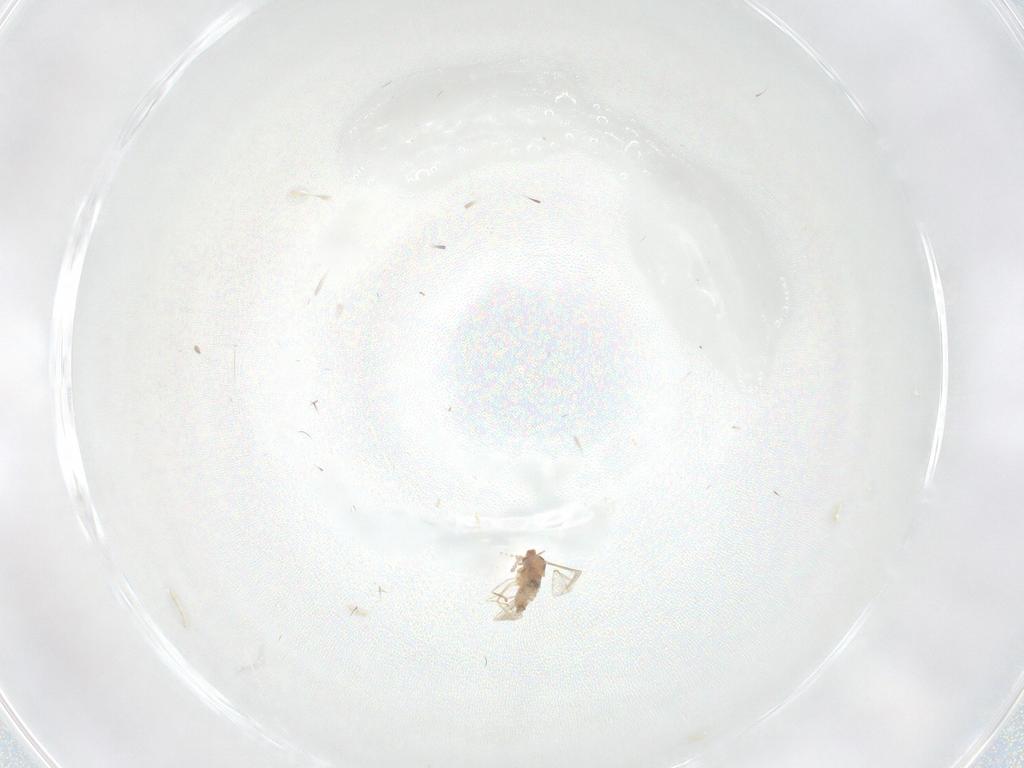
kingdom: Animalia
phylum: Arthropoda
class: Insecta
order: Diptera
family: Cecidomyiidae
